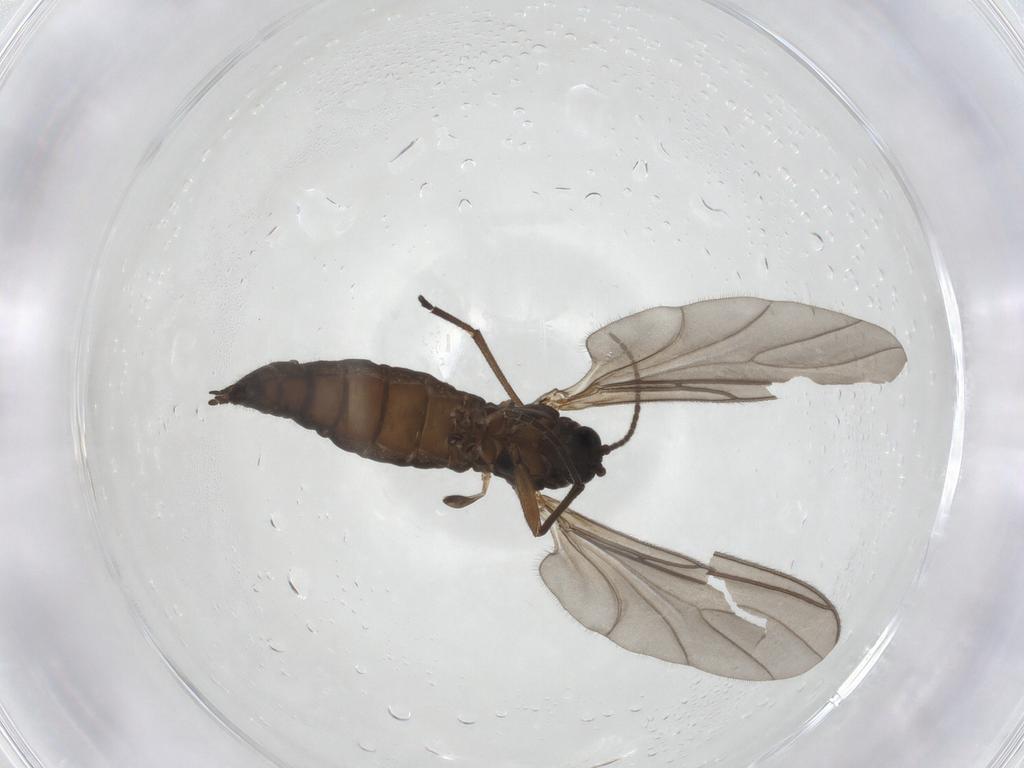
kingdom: Animalia
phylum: Arthropoda
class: Insecta
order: Diptera
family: Sciaridae
